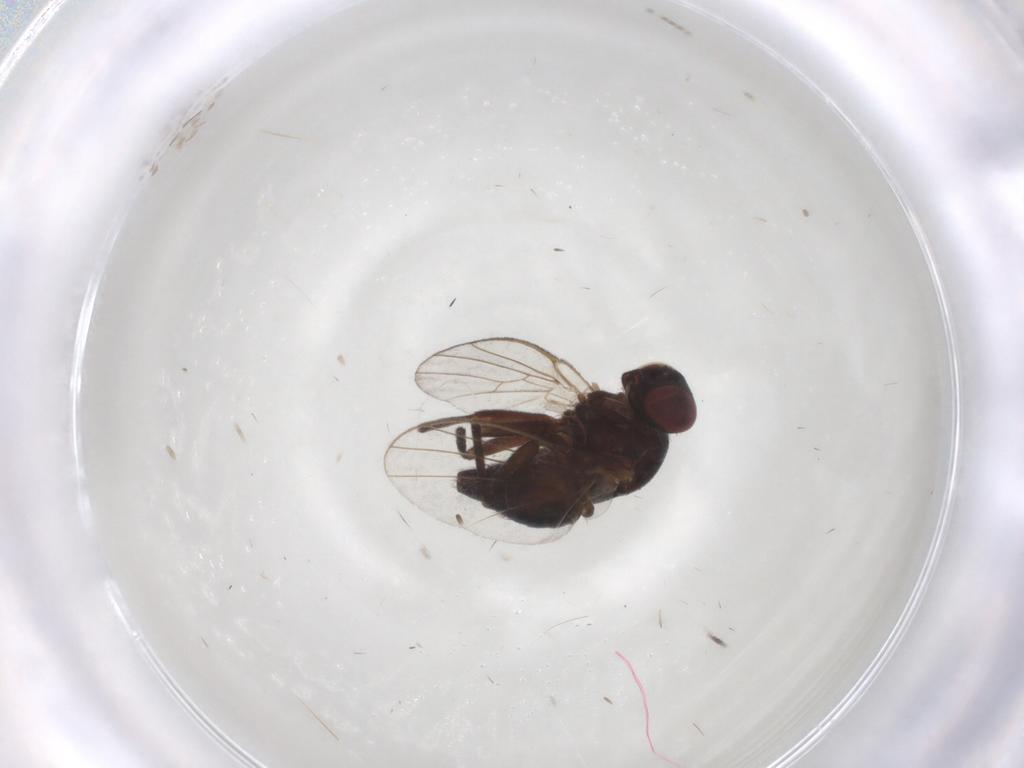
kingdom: Animalia
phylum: Arthropoda
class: Insecta
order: Diptera
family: Agromyzidae
